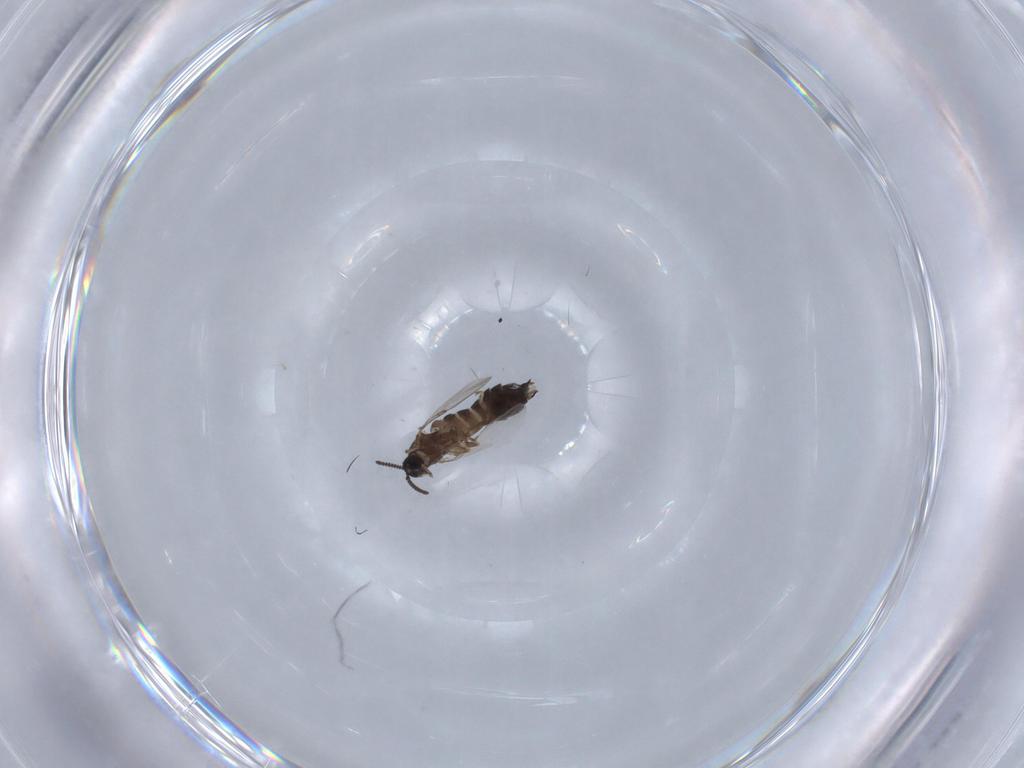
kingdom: Animalia
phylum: Arthropoda
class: Insecta
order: Diptera
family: Scatopsidae
